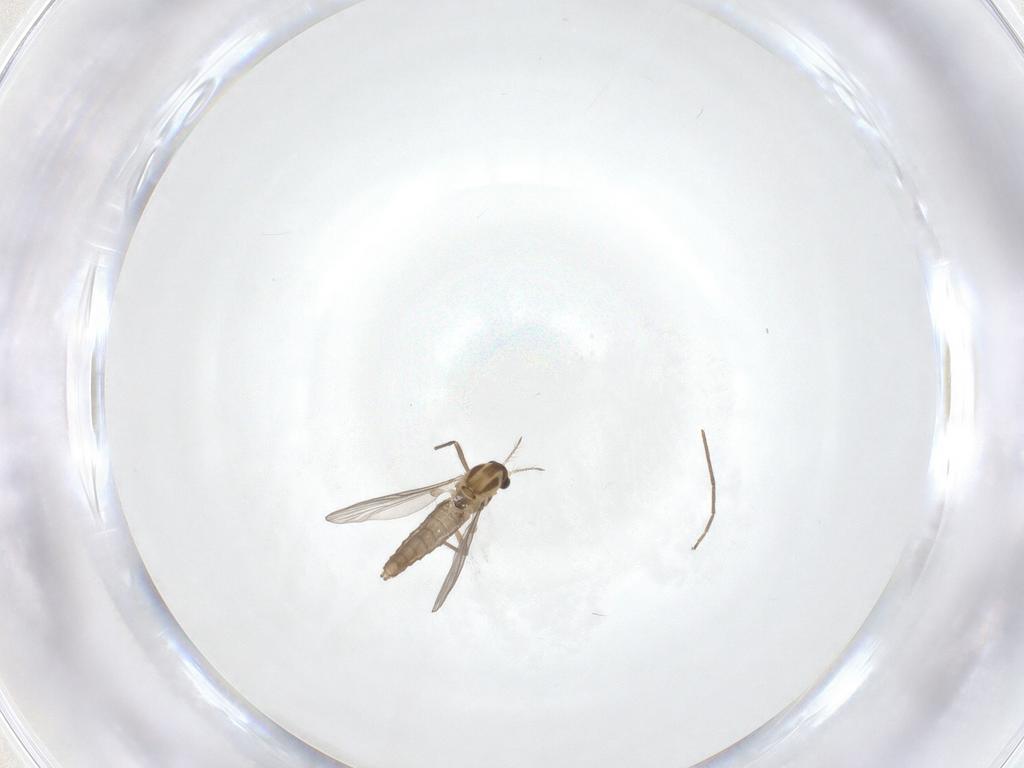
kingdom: Animalia
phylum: Arthropoda
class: Insecta
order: Diptera
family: Chironomidae
